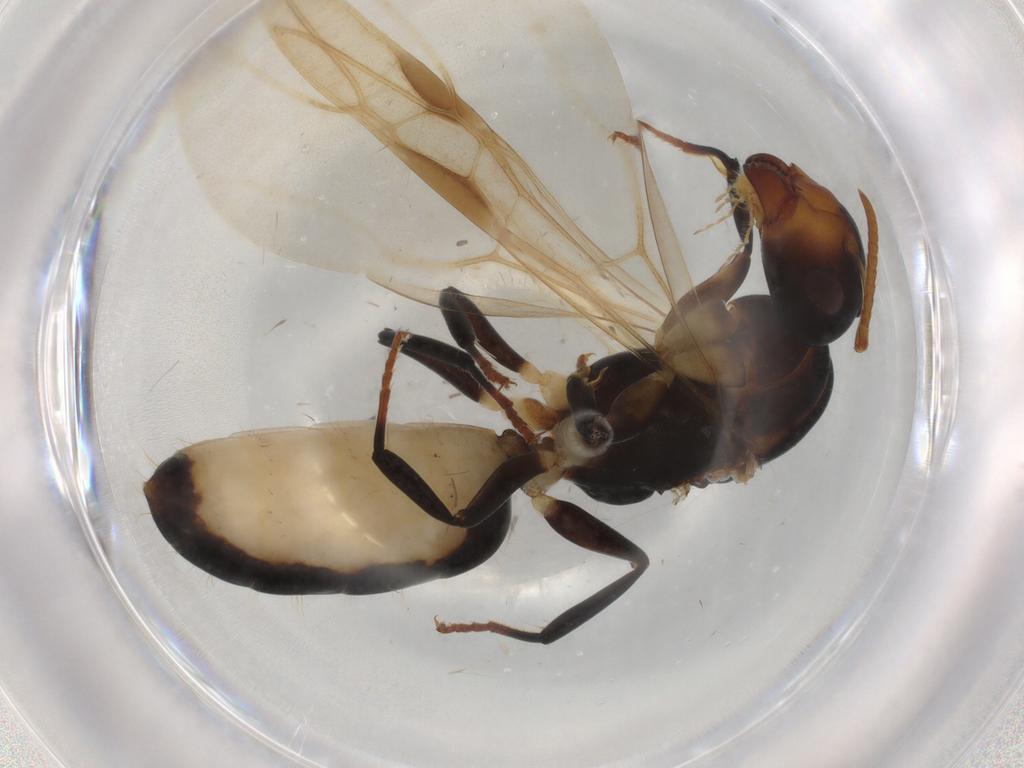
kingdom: Animalia
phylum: Arthropoda
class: Insecta
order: Hymenoptera
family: Formicidae
